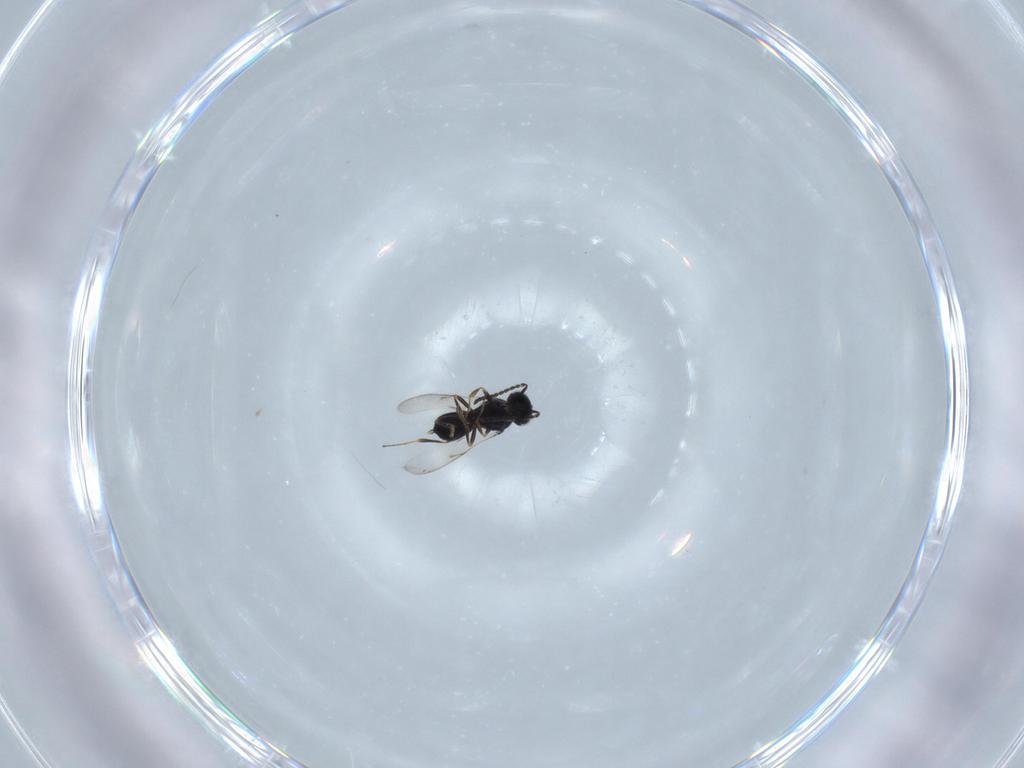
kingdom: Animalia
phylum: Arthropoda
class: Insecta
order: Hymenoptera
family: Scelionidae
